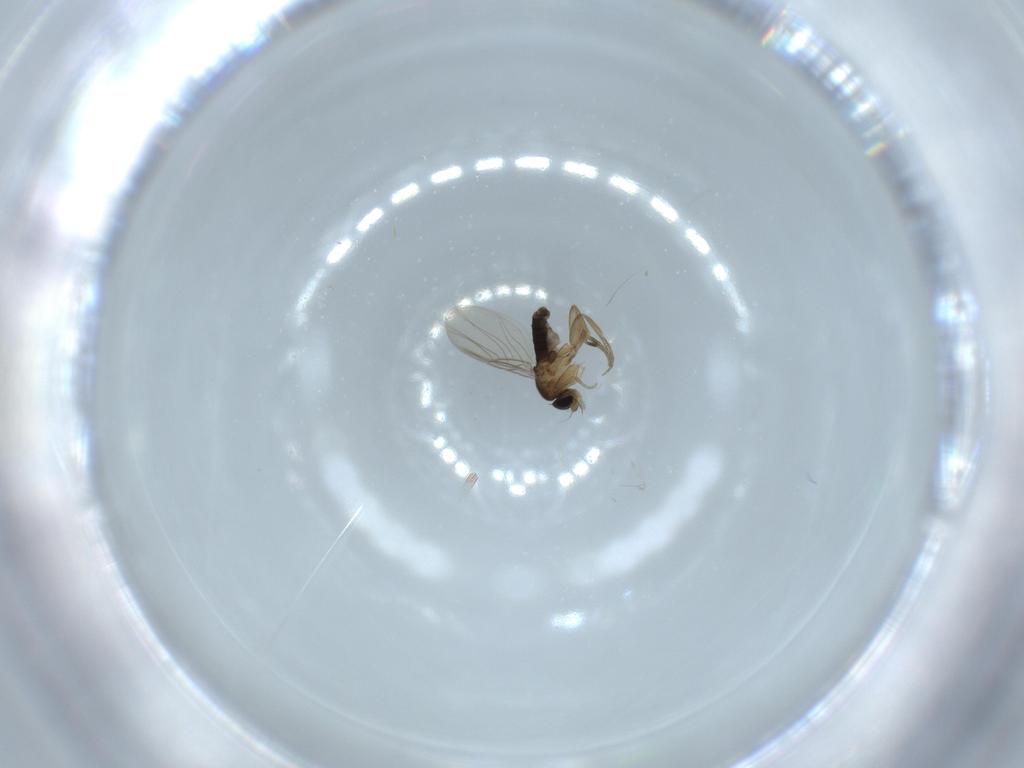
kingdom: Animalia
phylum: Arthropoda
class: Insecta
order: Diptera
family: Phoridae
